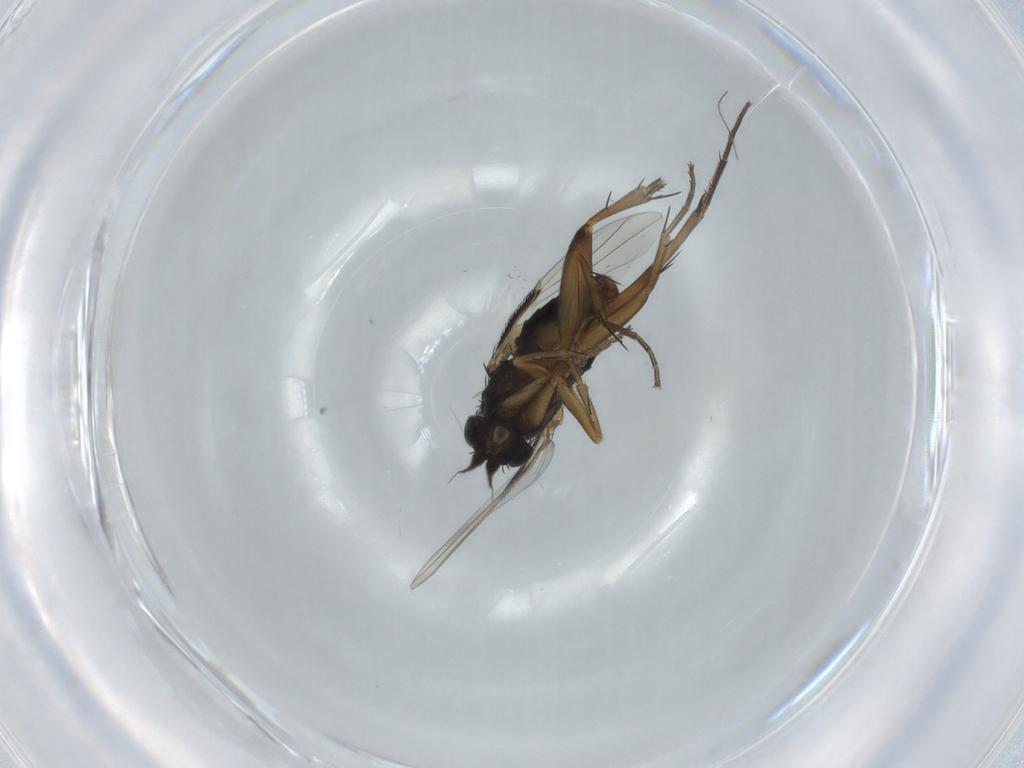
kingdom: Animalia
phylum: Arthropoda
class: Insecta
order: Diptera
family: Phoridae
